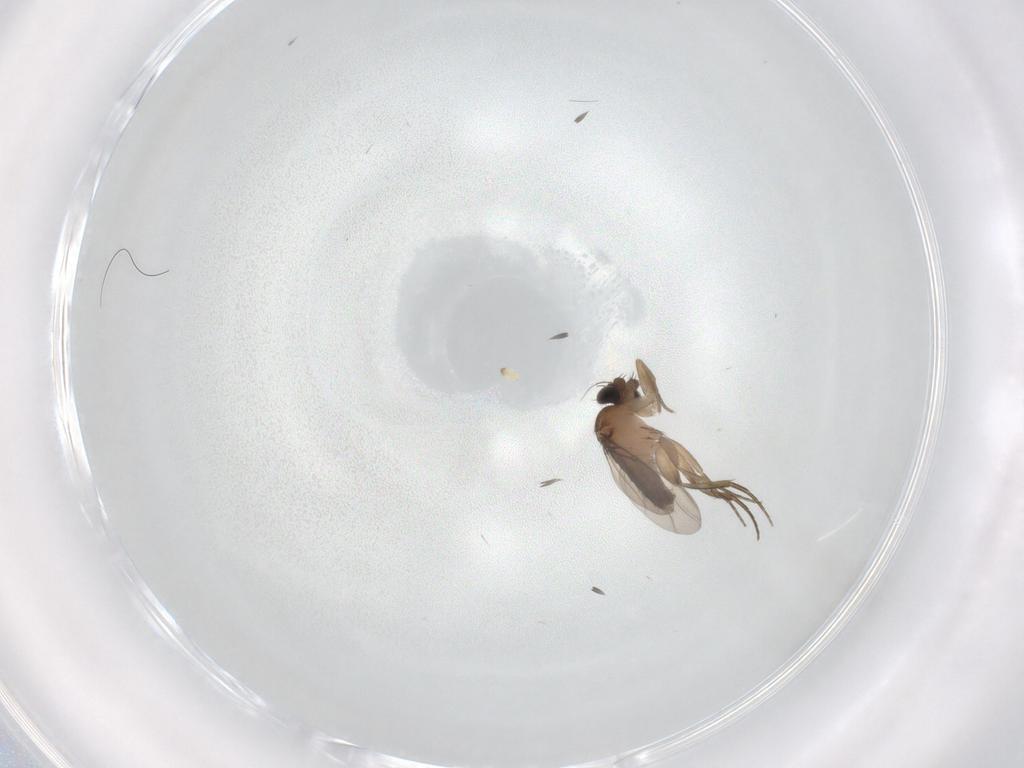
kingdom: Animalia
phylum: Arthropoda
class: Insecta
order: Diptera
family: Phoridae
